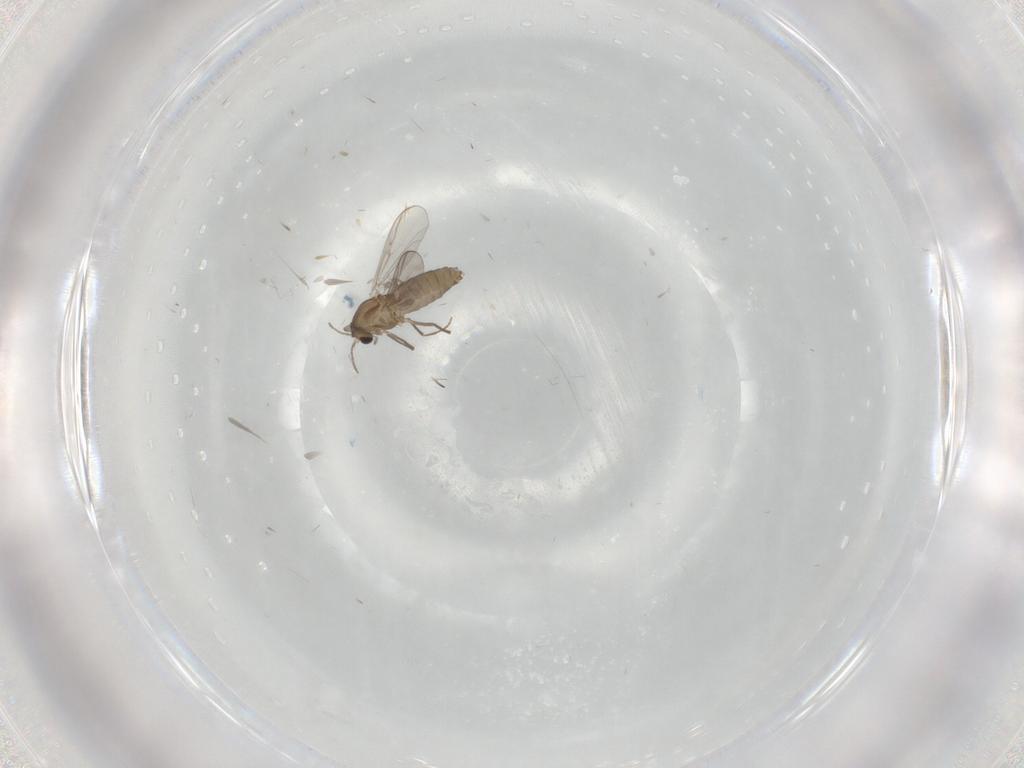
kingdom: Animalia
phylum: Arthropoda
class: Insecta
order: Diptera
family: Chironomidae
